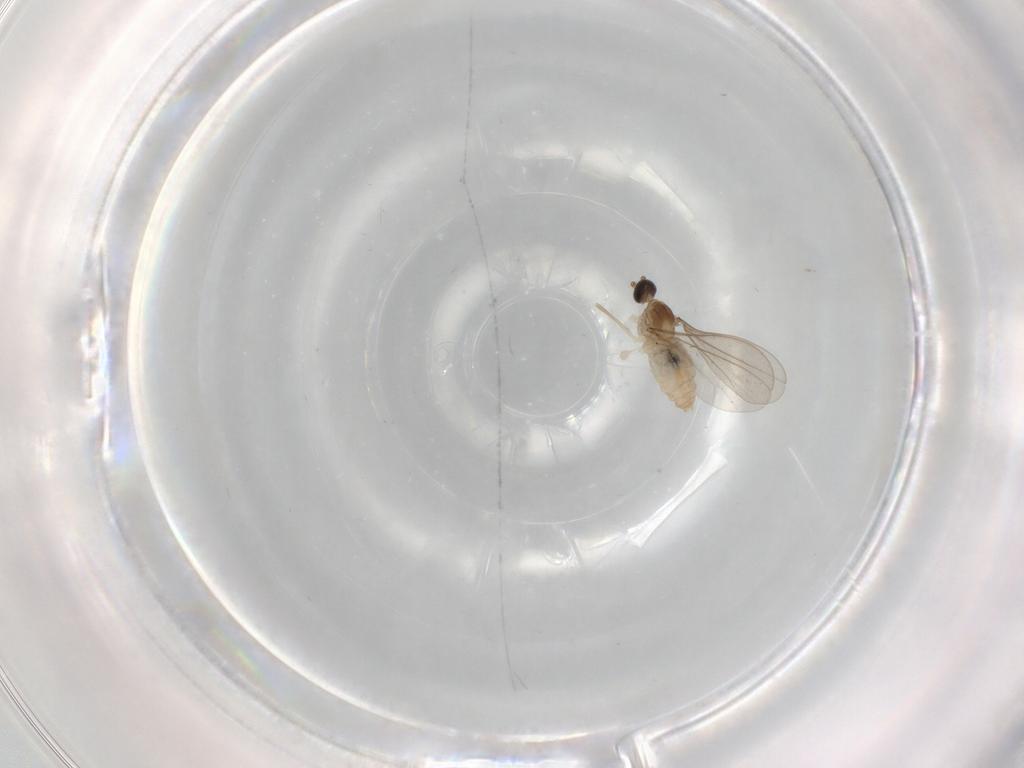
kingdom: Animalia
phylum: Arthropoda
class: Insecta
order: Diptera
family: Cecidomyiidae
